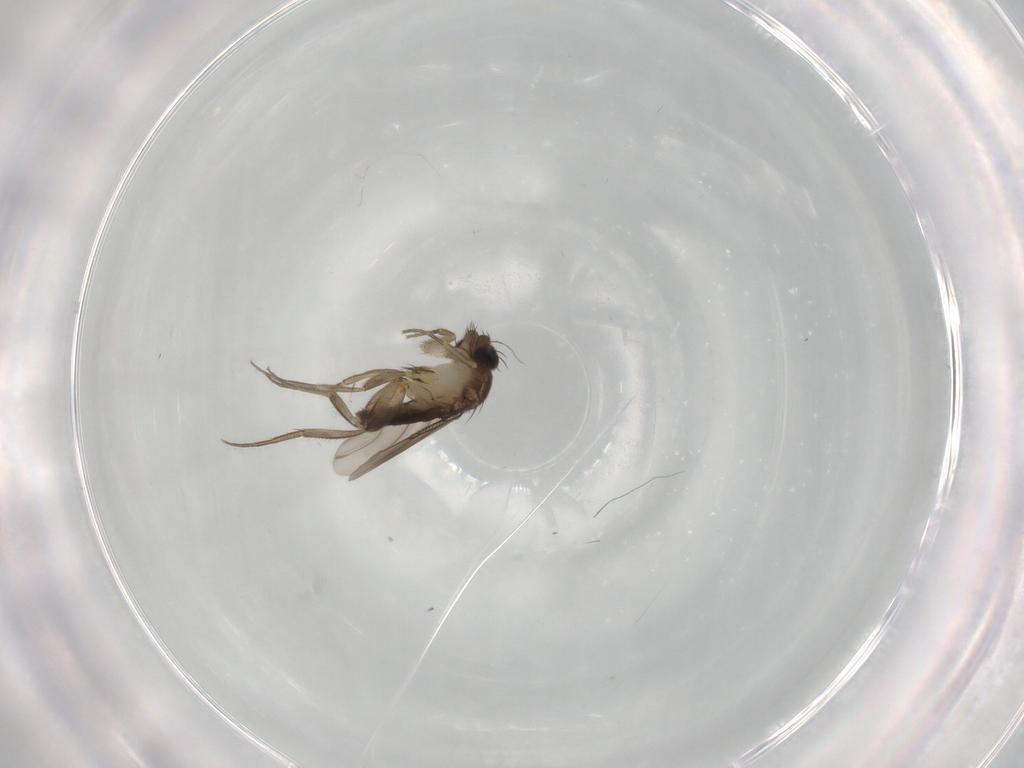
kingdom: Animalia
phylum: Arthropoda
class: Insecta
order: Diptera
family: Phoridae
